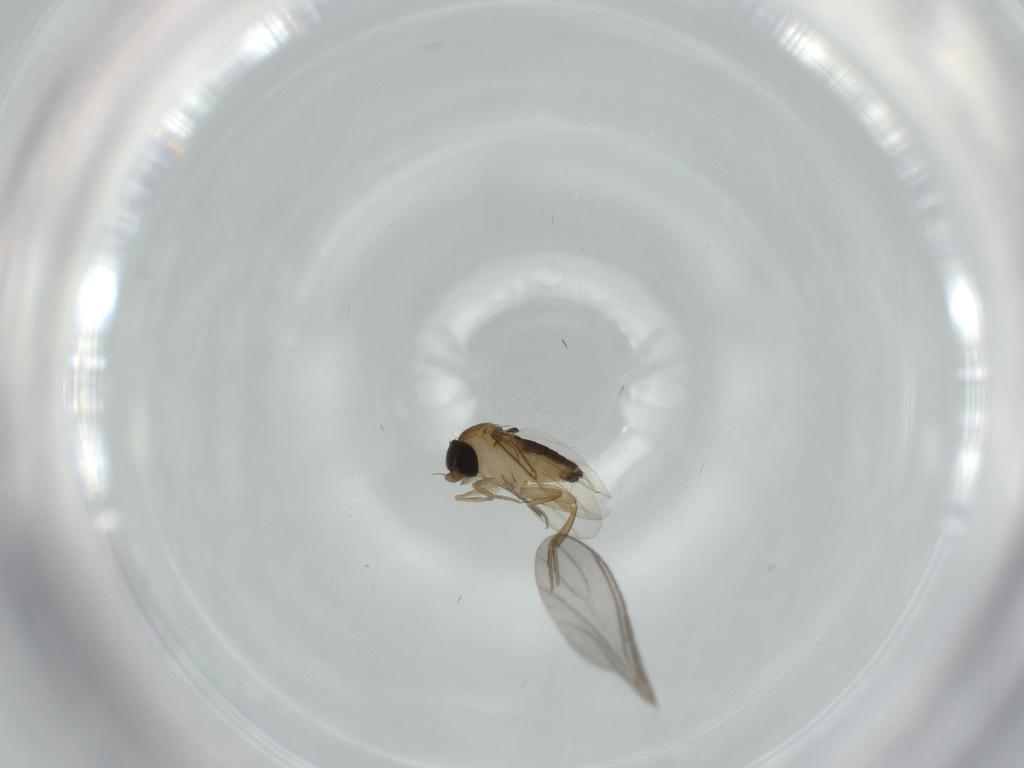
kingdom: Animalia
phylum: Arthropoda
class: Insecta
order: Diptera
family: Phoridae
